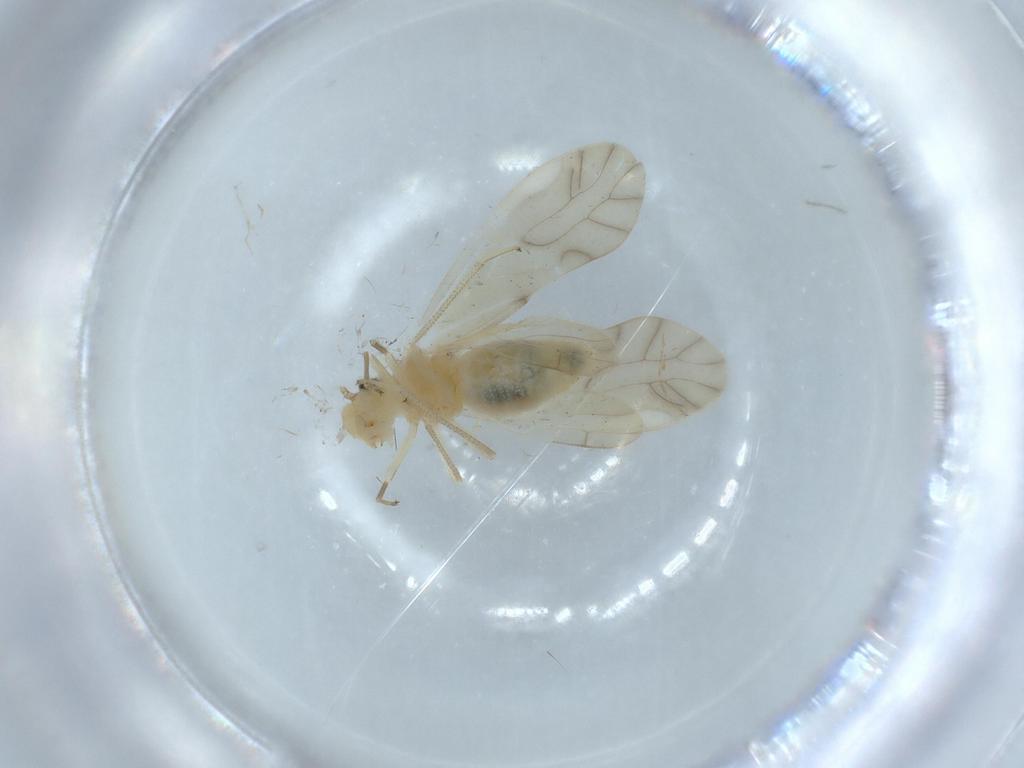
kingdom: Animalia
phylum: Arthropoda
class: Insecta
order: Psocodea
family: Caeciliusidae
